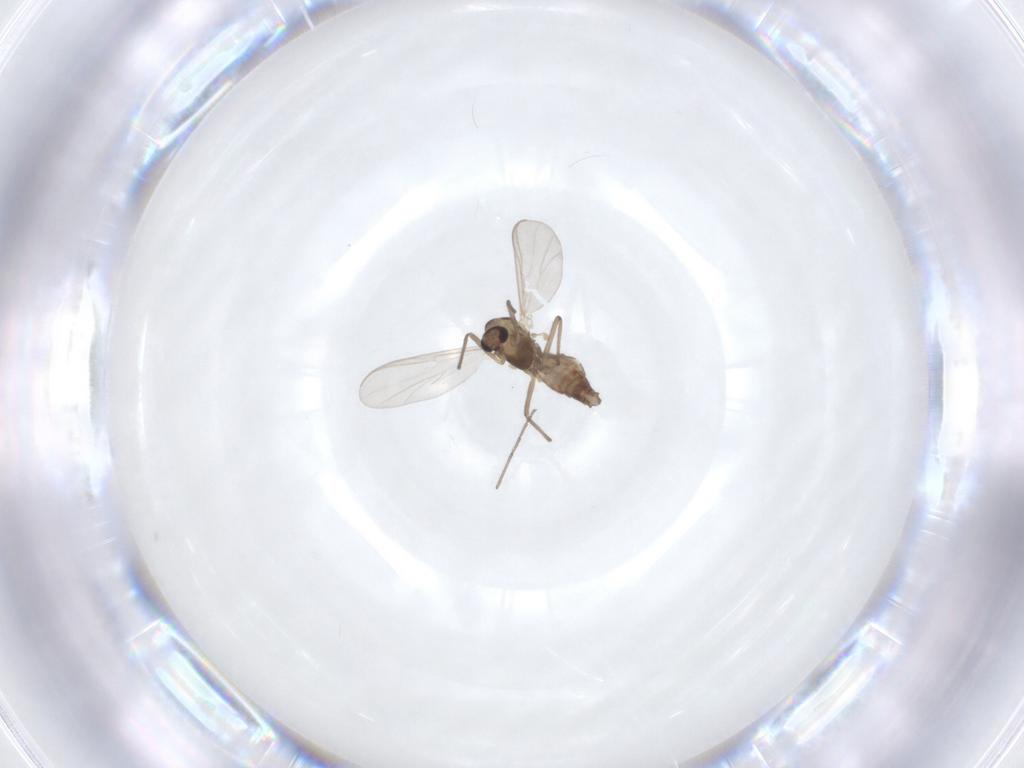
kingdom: Animalia
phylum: Arthropoda
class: Insecta
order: Diptera
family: Chironomidae
